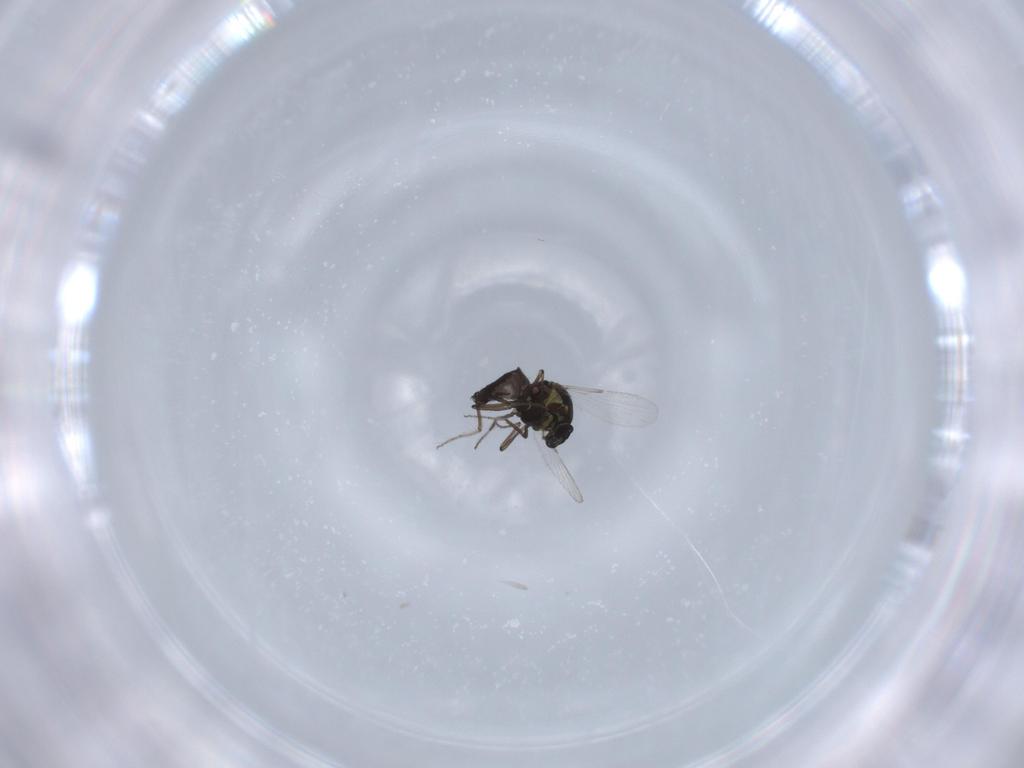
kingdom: Animalia
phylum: Arthropoda
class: Insecta
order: Diptera
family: Ceratopogonidae
